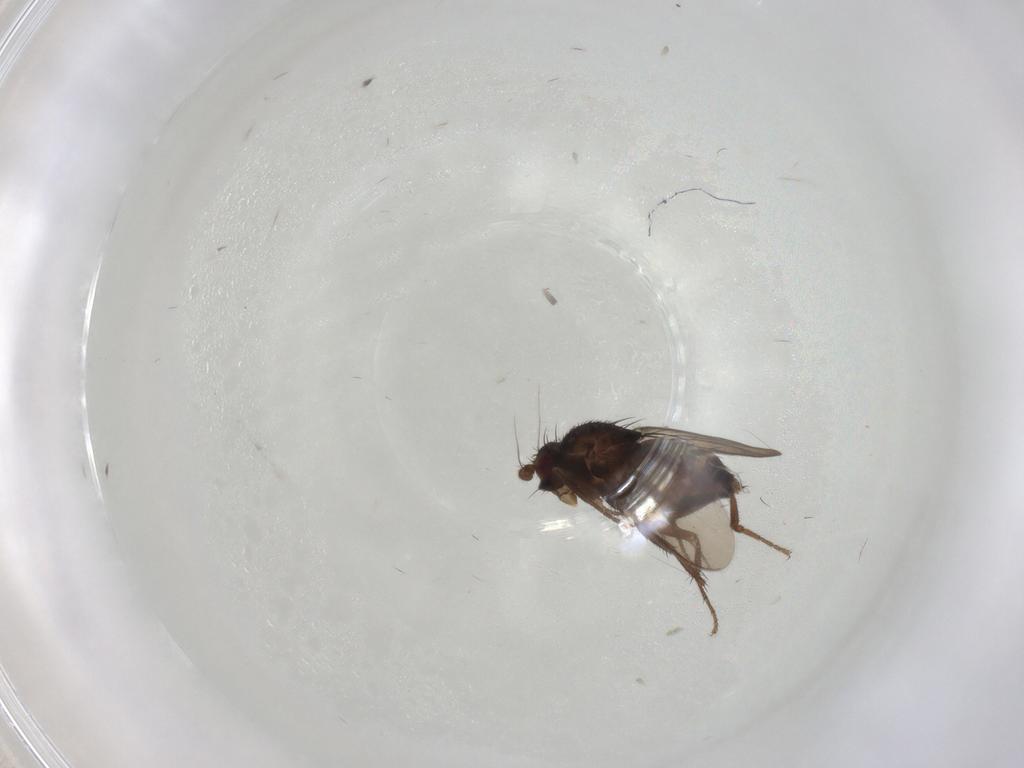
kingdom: Animalia
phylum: Arthropoda
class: Insecta
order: Diptera
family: Sphaeroceridae
